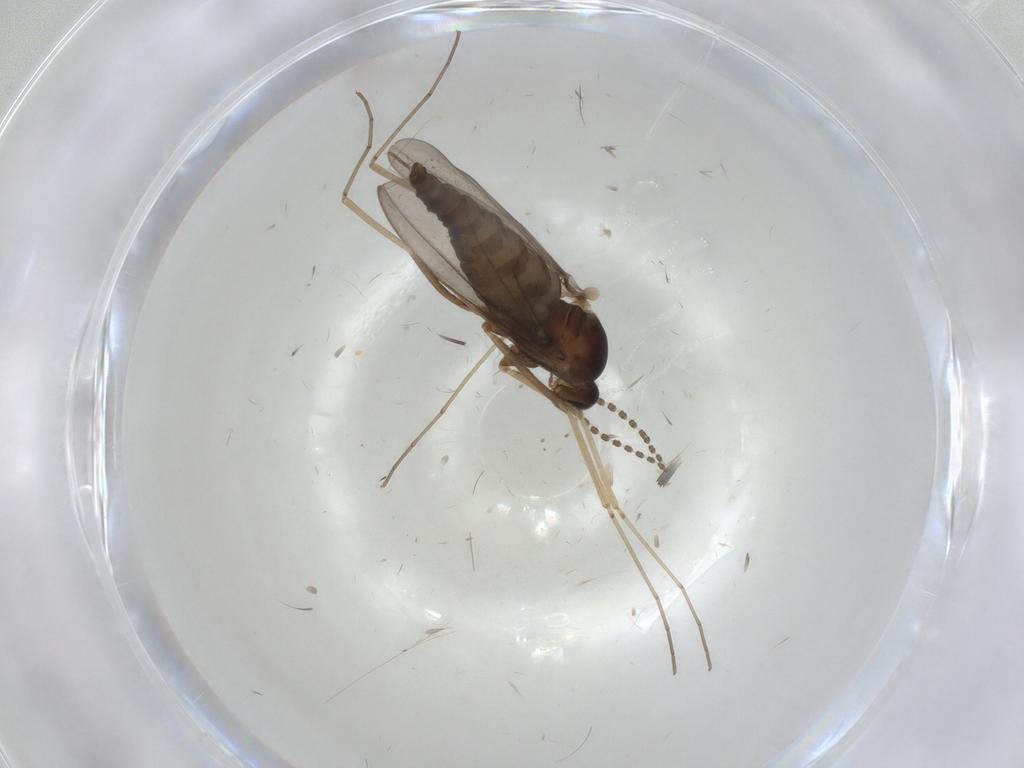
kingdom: Animalia
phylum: Arthropoda
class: Insecta
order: Diptera
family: Cecidomyiidae
